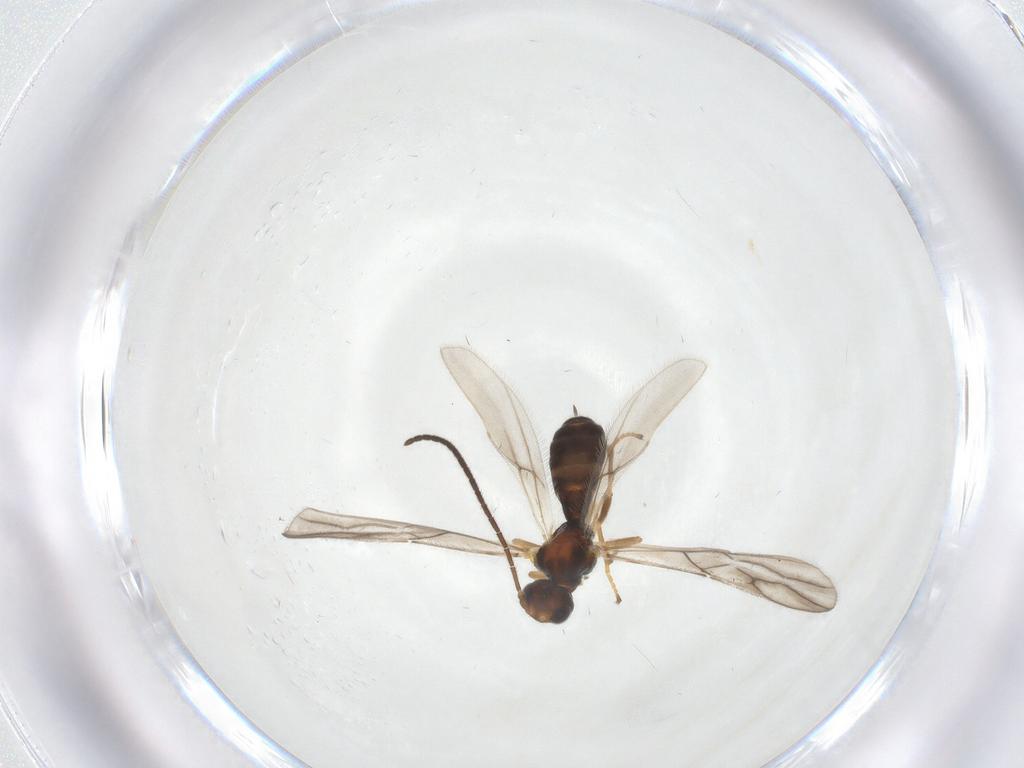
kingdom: Animalia
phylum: Arthropoda
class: Insecta
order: Hymenoptera
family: Braconidae
